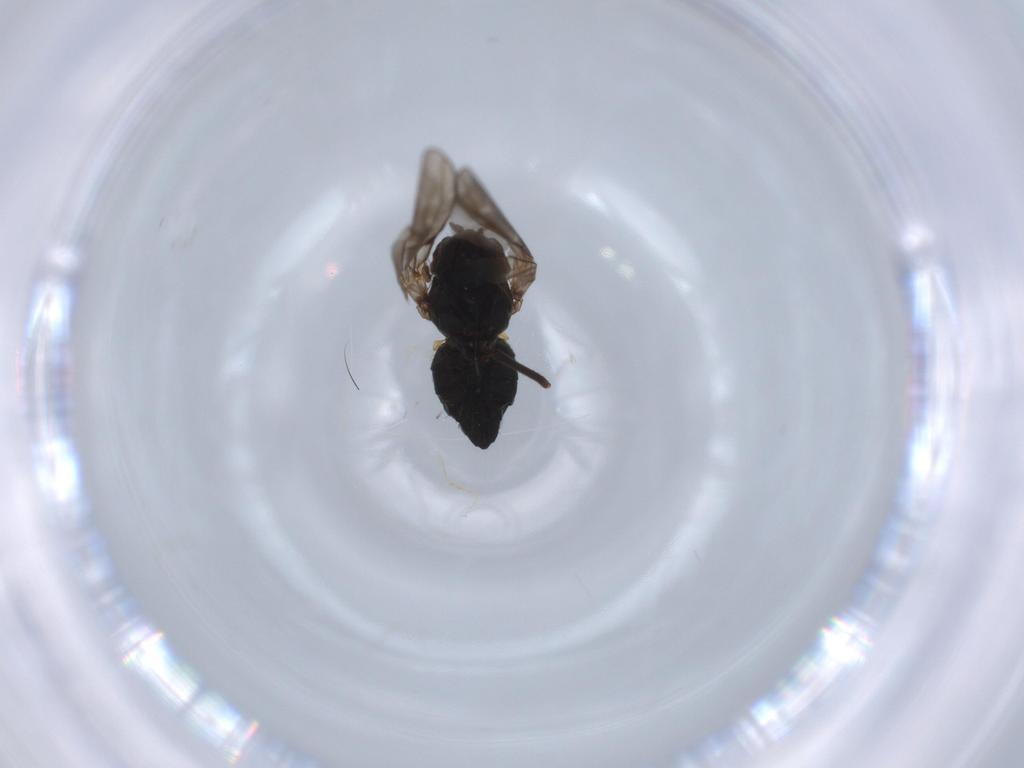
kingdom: Animalia
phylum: Arthropoda
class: Insecta
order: Diptera
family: Ephydridae
